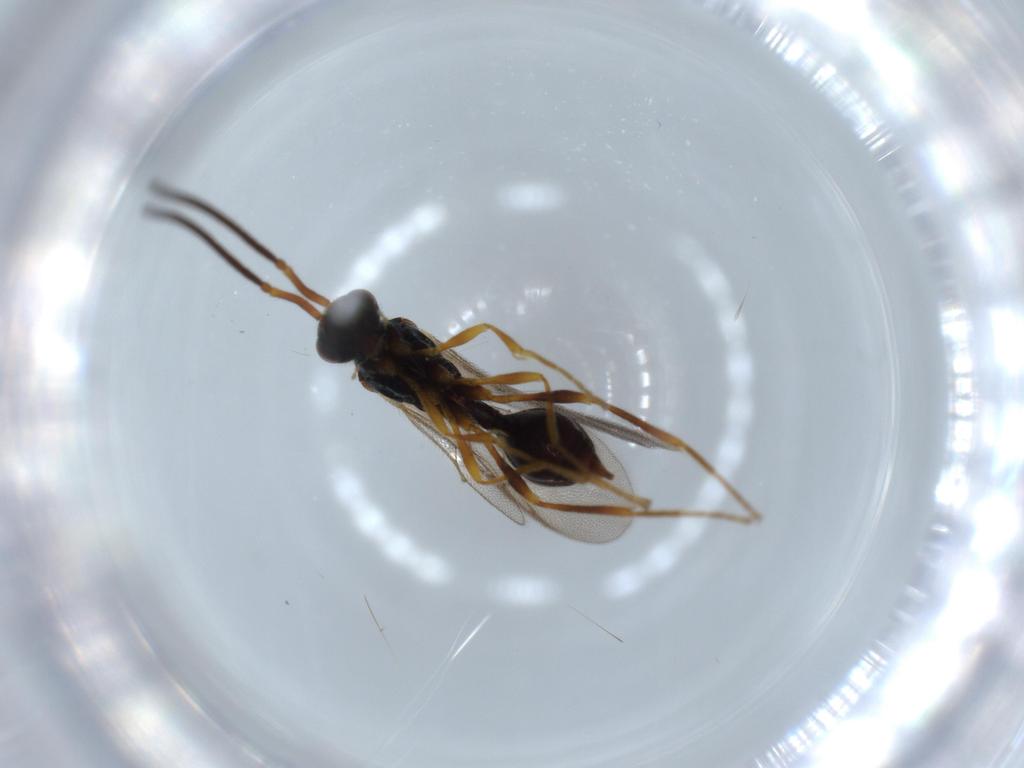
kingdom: Animalia
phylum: Arthropoda
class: Insecta
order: Hymenoptera
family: Diapriidae
